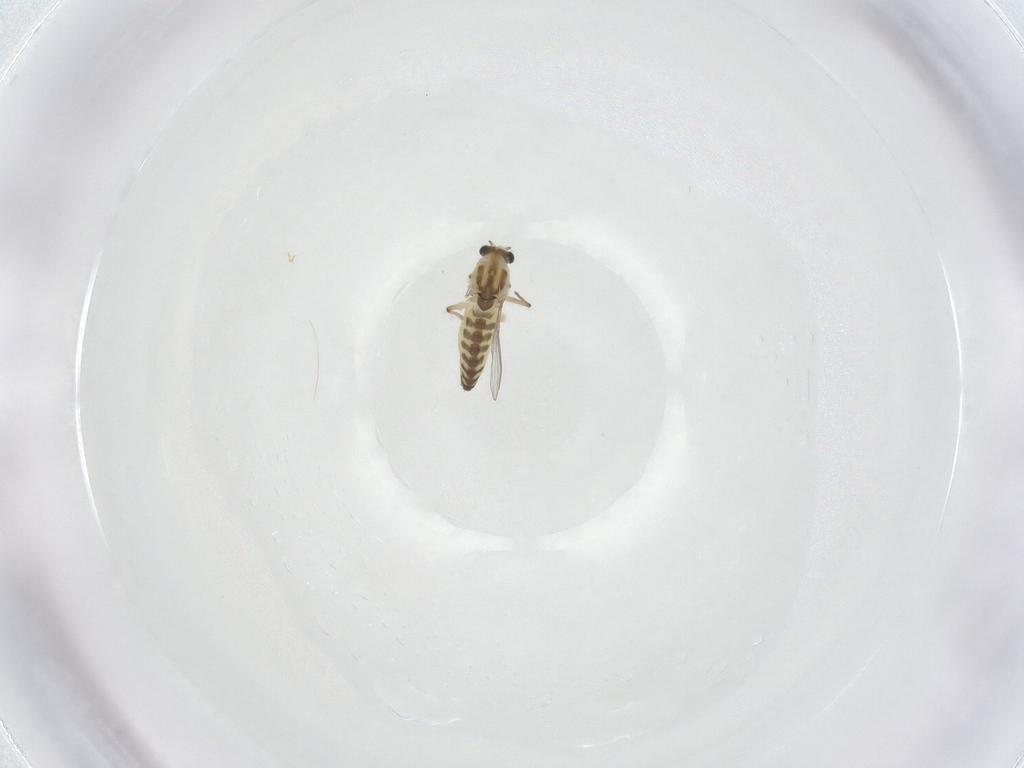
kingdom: Animalia
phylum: Arthropoda
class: Insecta
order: Diptera
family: Chironomidae
